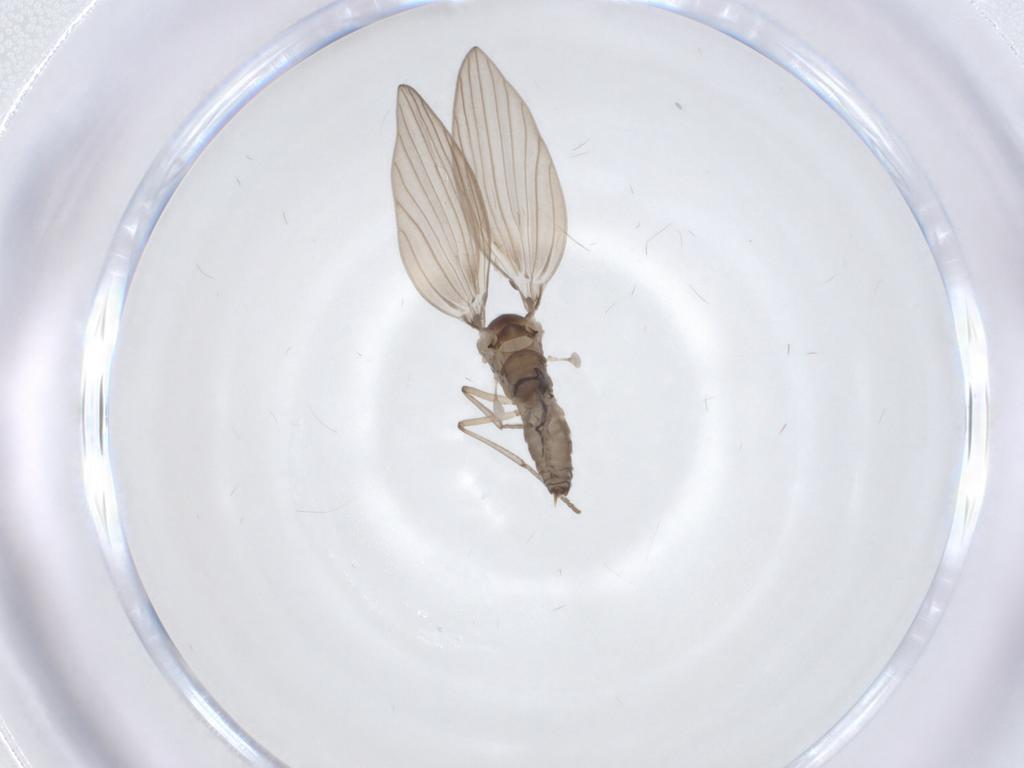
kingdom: Animalia
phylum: Arthropoda
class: Insecta
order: Diptera
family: Psychodidae
